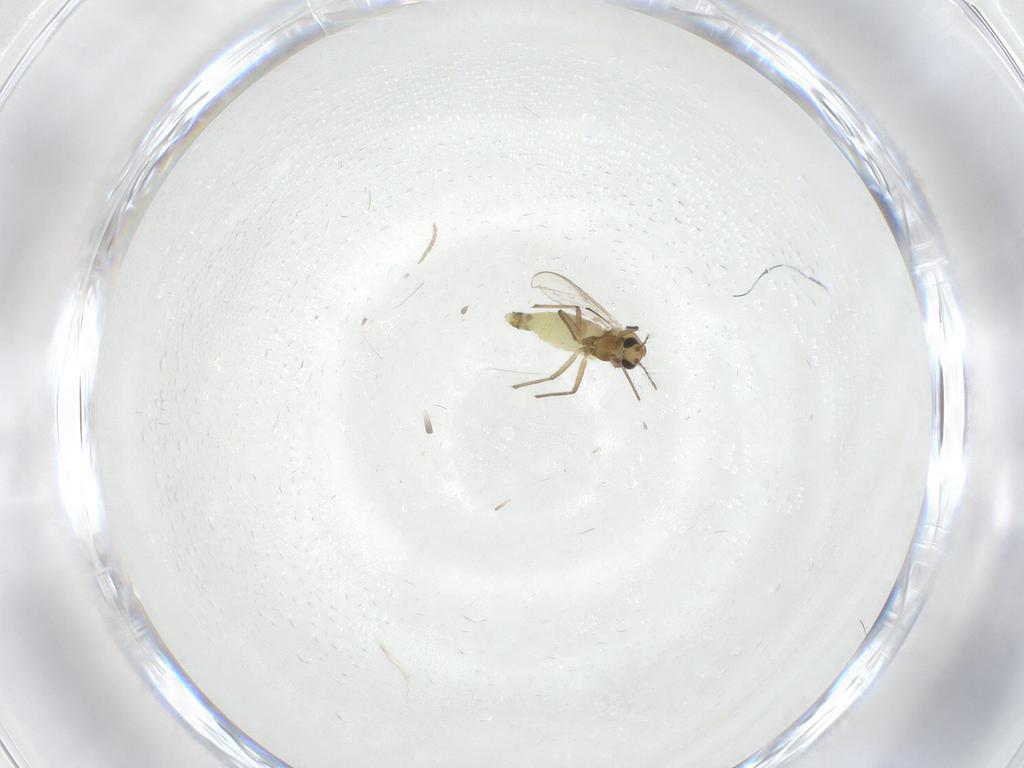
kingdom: Animalia
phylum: Arthropoda
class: Insecta
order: Diptera
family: Chironomidae
